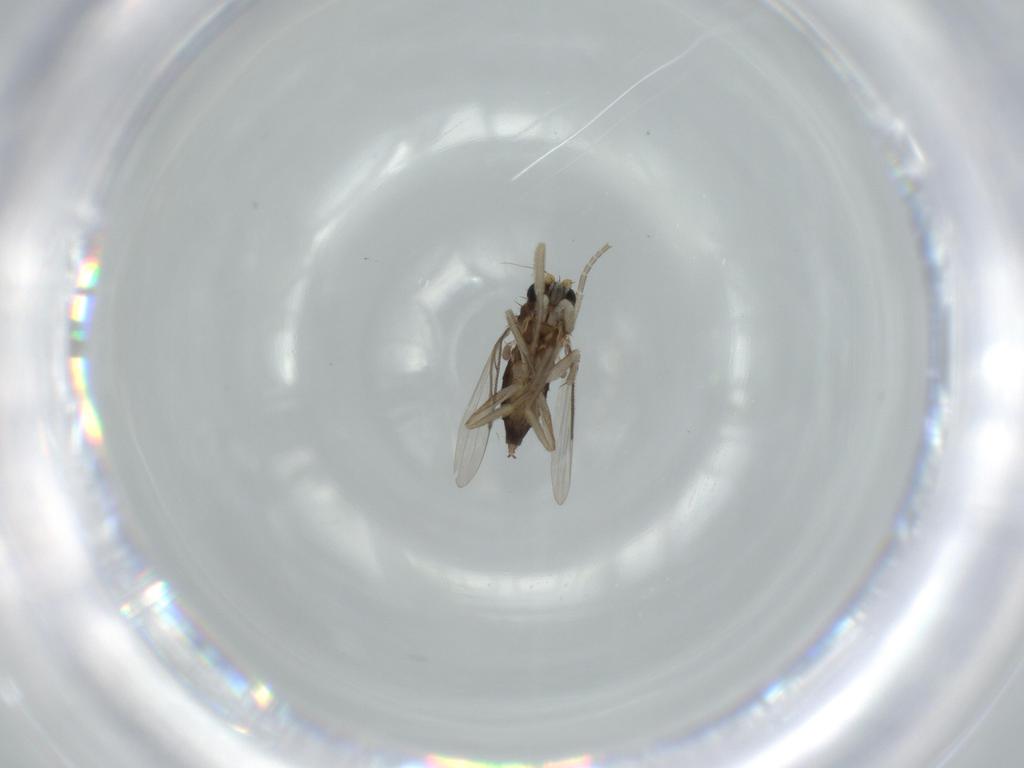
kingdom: Animalia
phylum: Arthropoda
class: Insecta
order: Diptera
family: Phoridae
